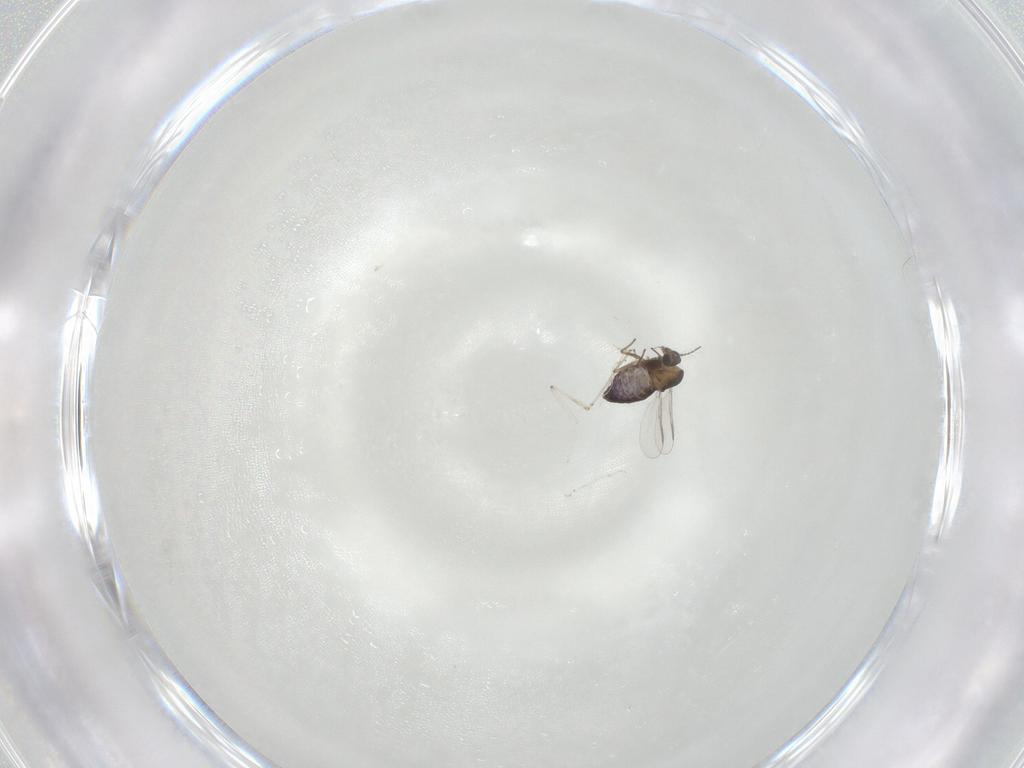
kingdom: Animalia
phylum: Arthropoda
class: Insecta
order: Diptera
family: Chironomidae
